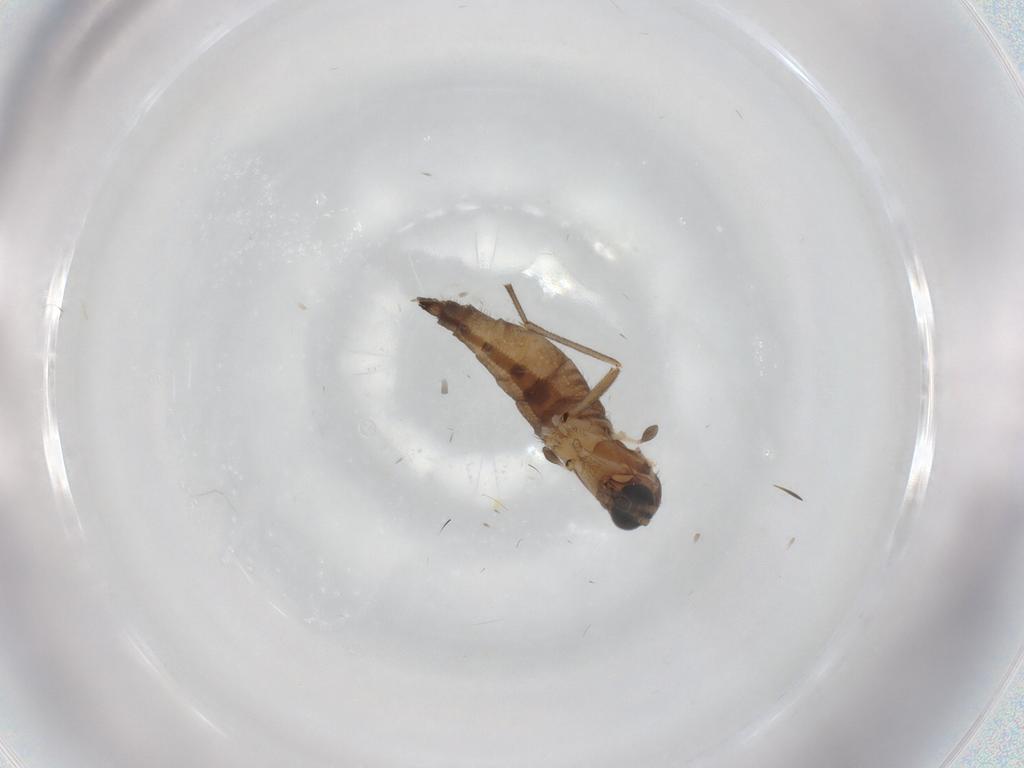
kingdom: Animalia
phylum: Arthropoda
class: Insecta
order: Diptera
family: Sciaridae
